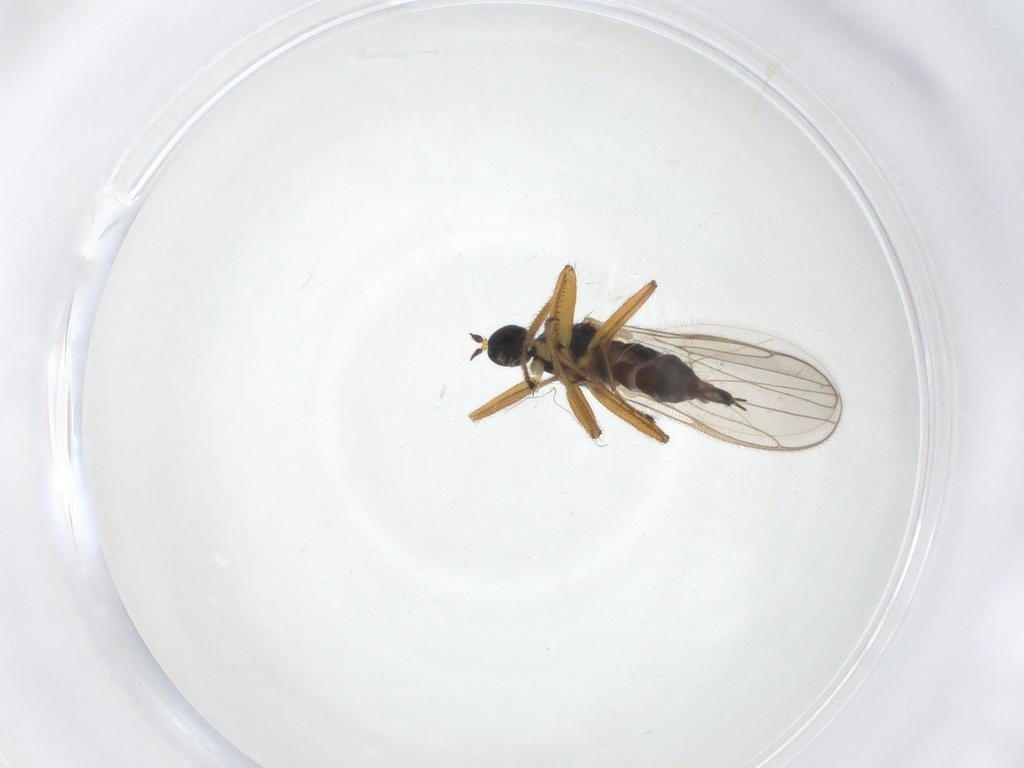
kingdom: Animalia
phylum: Arthropoda
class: Insecta
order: Diptera
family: Hybotidae
